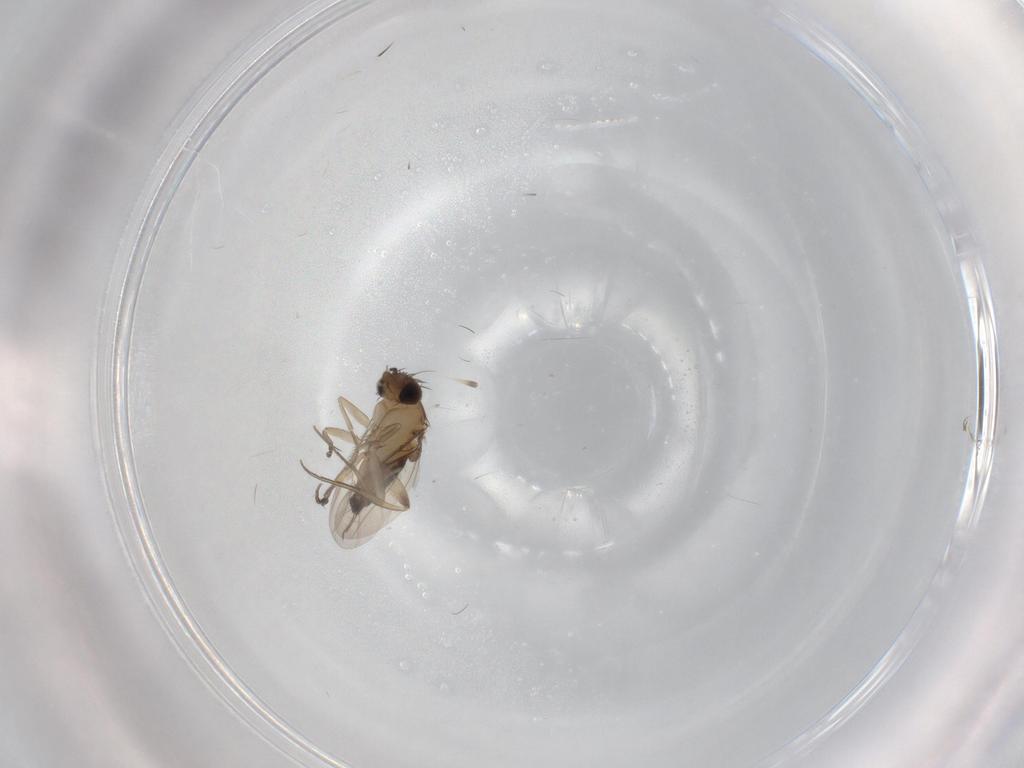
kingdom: Animalia
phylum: Arthropoda
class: Insecta
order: Diptera
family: Phoridae
